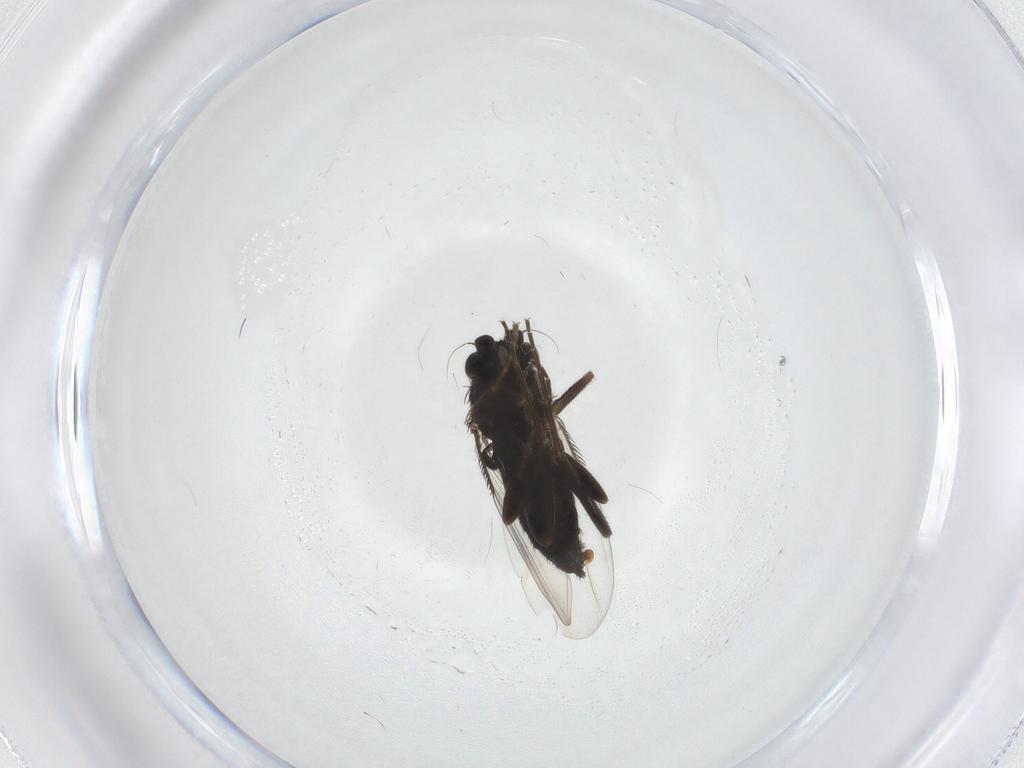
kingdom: Animalia
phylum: Arthropoda
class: Insecta
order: Diptera
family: Phoridae
